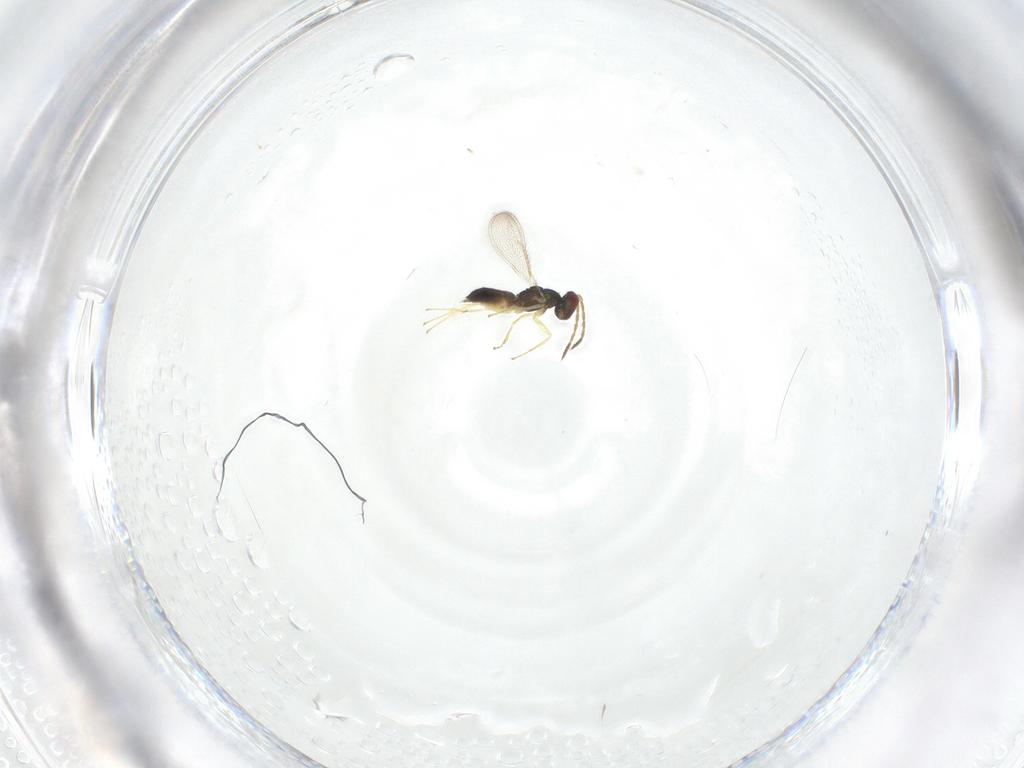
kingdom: Animalia
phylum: Arthropoda
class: Insecta
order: Hymenoptera
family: Eulophidae
